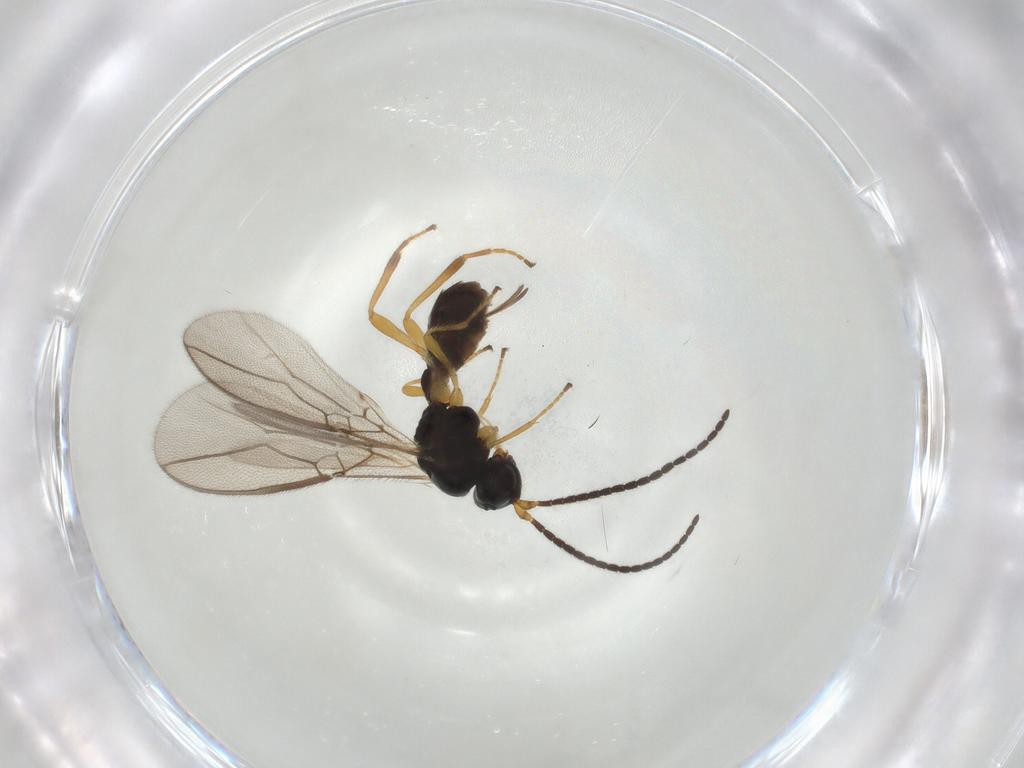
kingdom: Animalia
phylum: Arthropoda
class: Insecta
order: Hymenoptera
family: Braconidae
